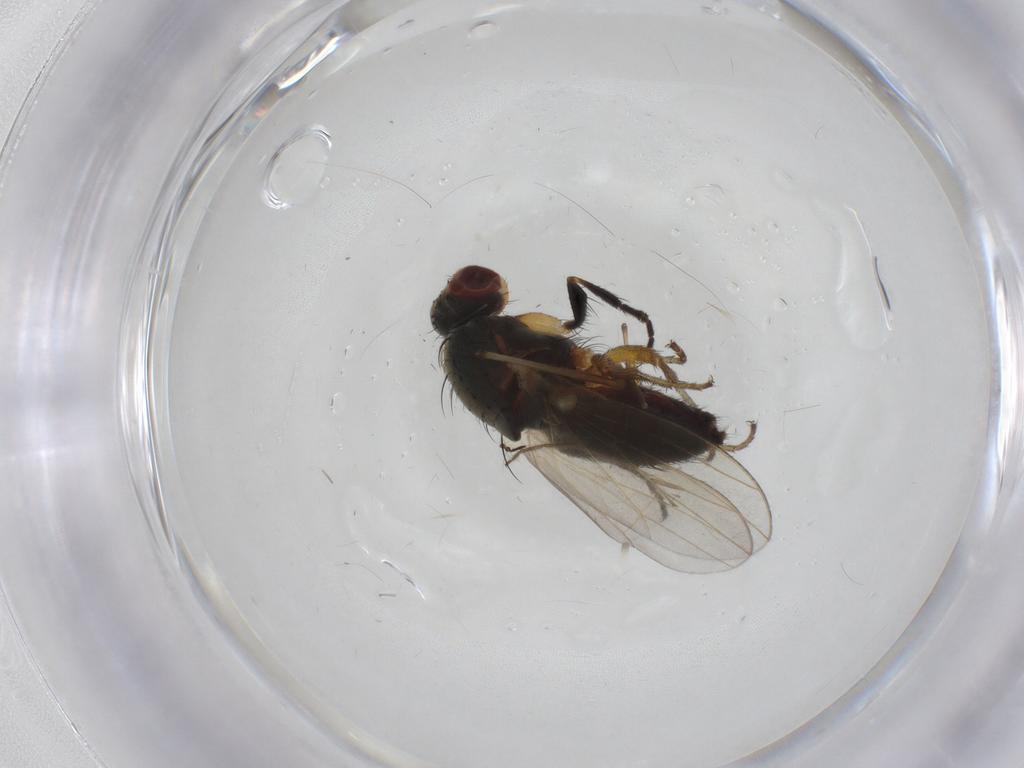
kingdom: Animalia
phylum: Arthropoda
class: Insecta
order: Diptera
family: Heleomyzidae
